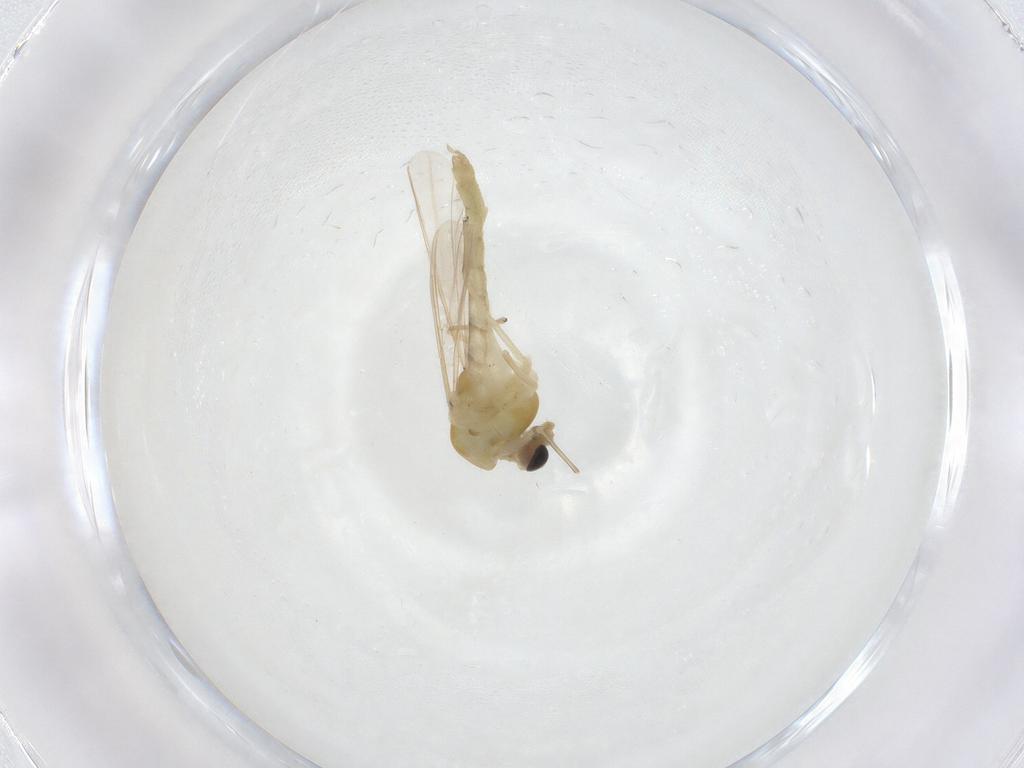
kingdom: Animalia
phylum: Arthropoda
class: Insecta
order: Diptera
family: Chironomidae
